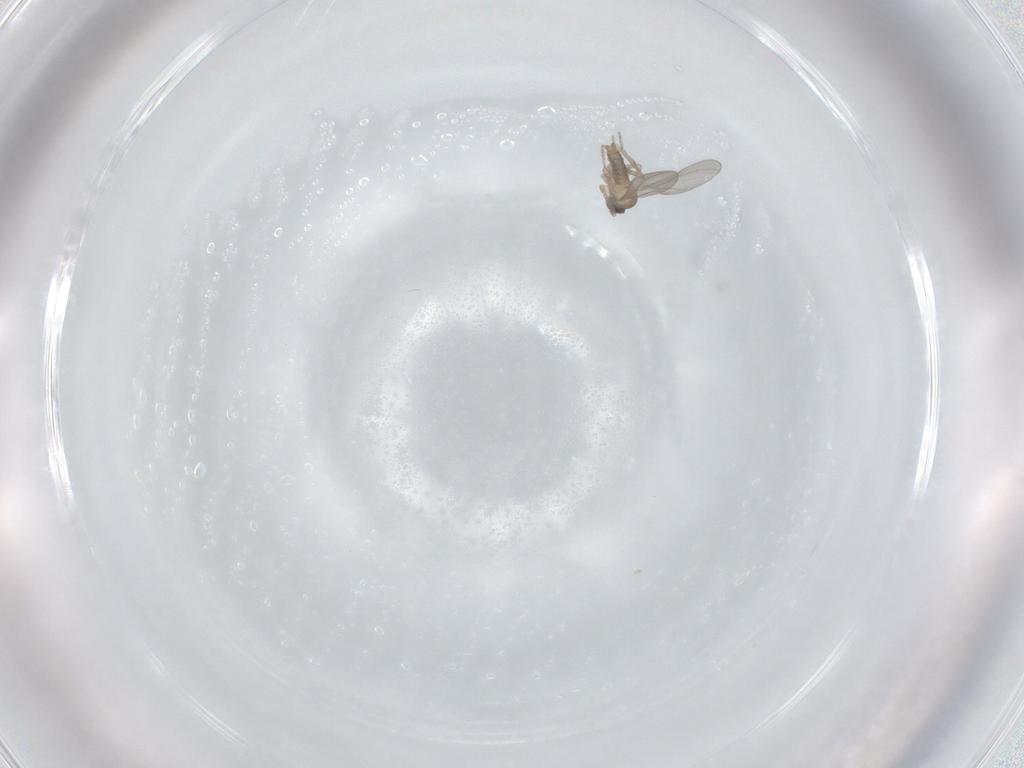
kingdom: Animalia
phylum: Arthropoda
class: Insecta
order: Diptera
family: Cecidomyiidae
